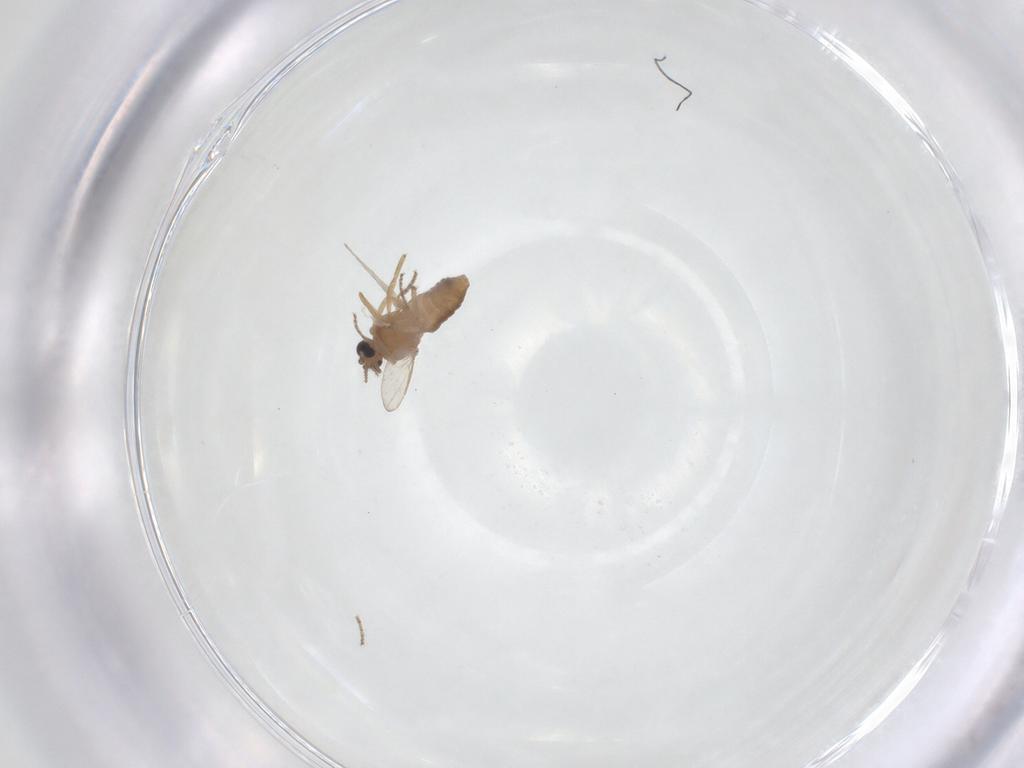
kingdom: Animalia
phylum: Arthropoda
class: Insecta
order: Diptera
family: Ceratopogonidae
